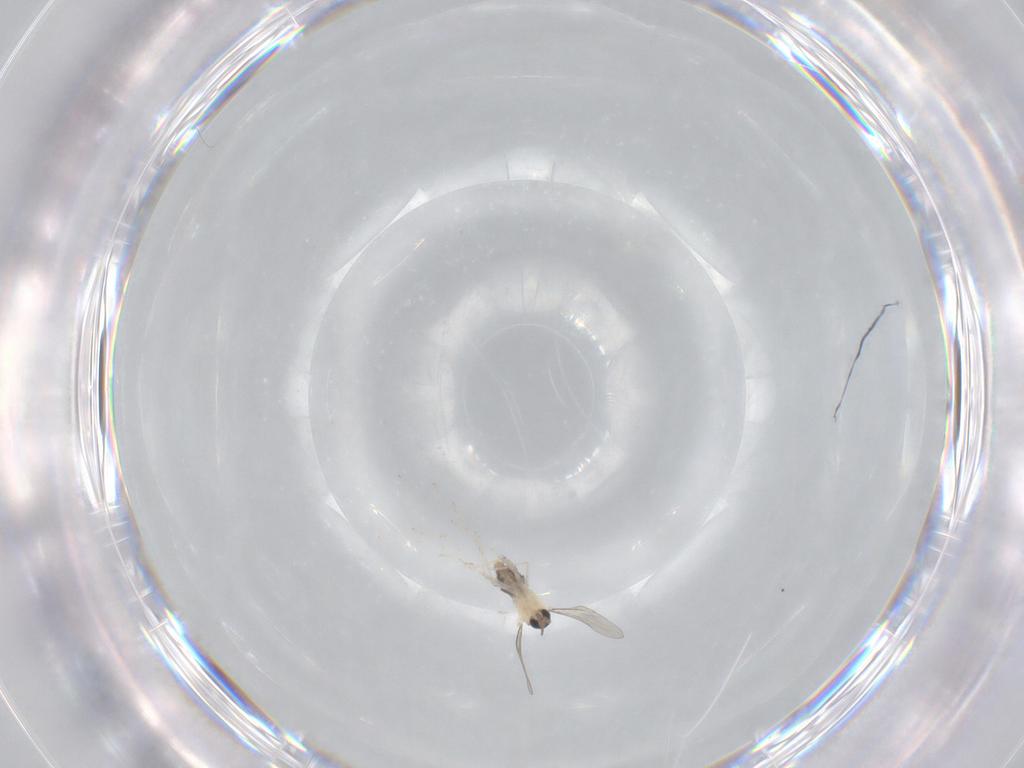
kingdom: Animalia
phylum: Arthropoda
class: Insecta
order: Diptera
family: Cecidomyiidae
